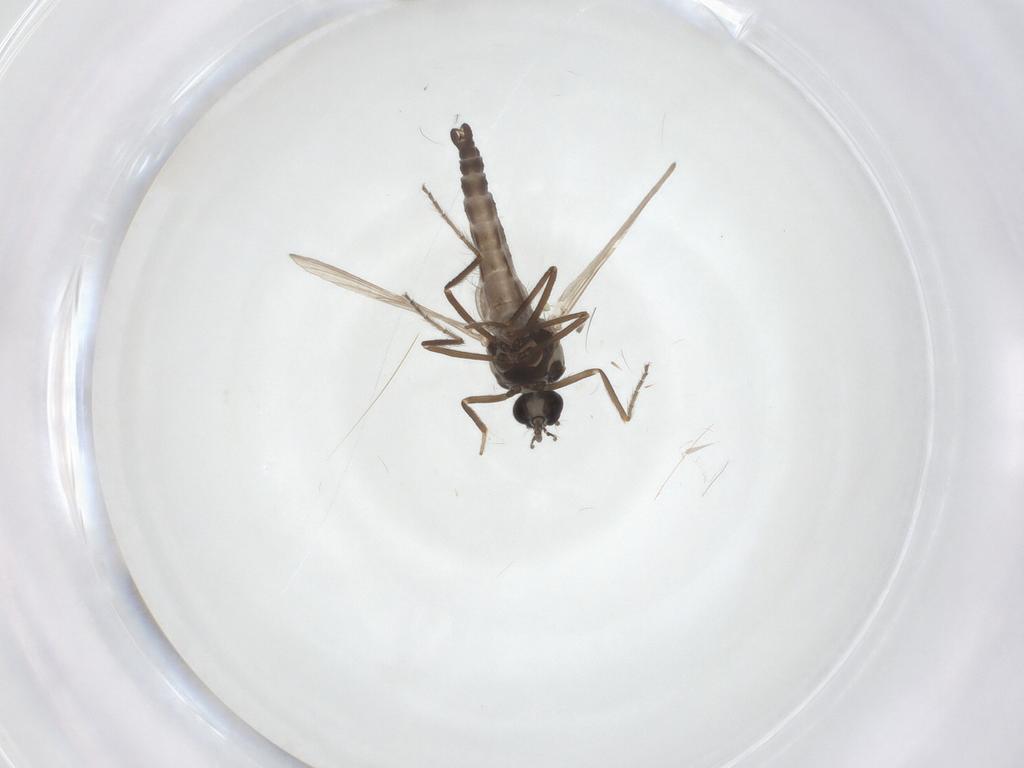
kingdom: Animalia
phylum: Arthropoda
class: Insecta
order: Diptera
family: Ceratopogonidae
